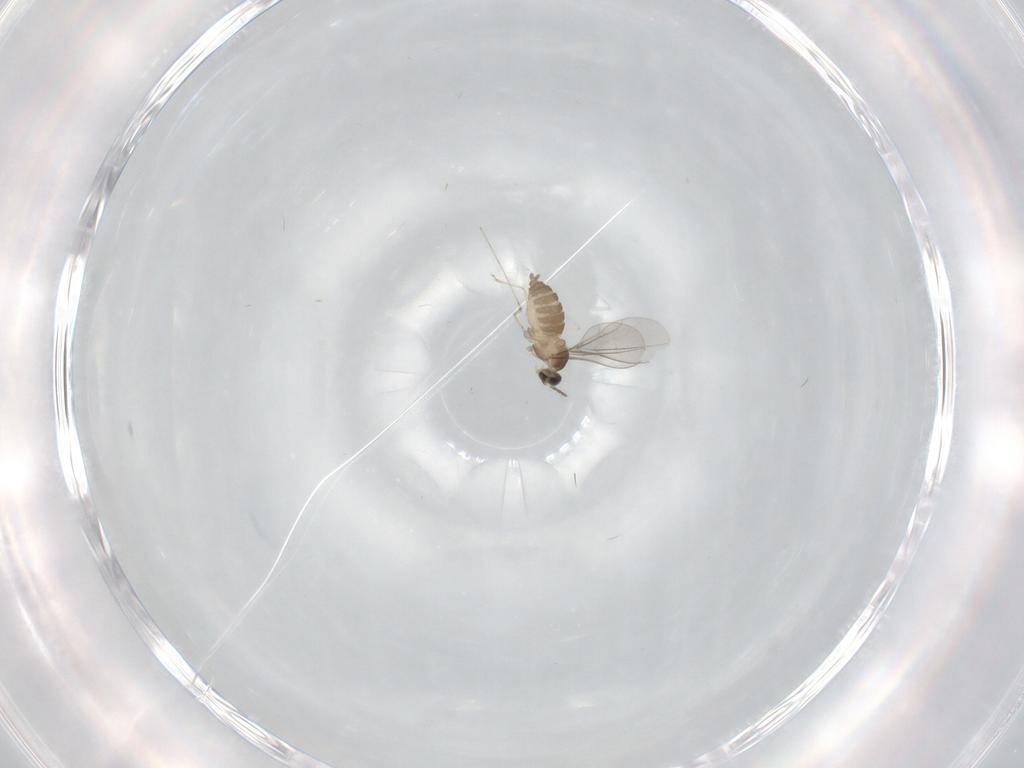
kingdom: Animalia
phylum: Arthropoda
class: Insecta
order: Diptera
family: Cecidomyiidae
